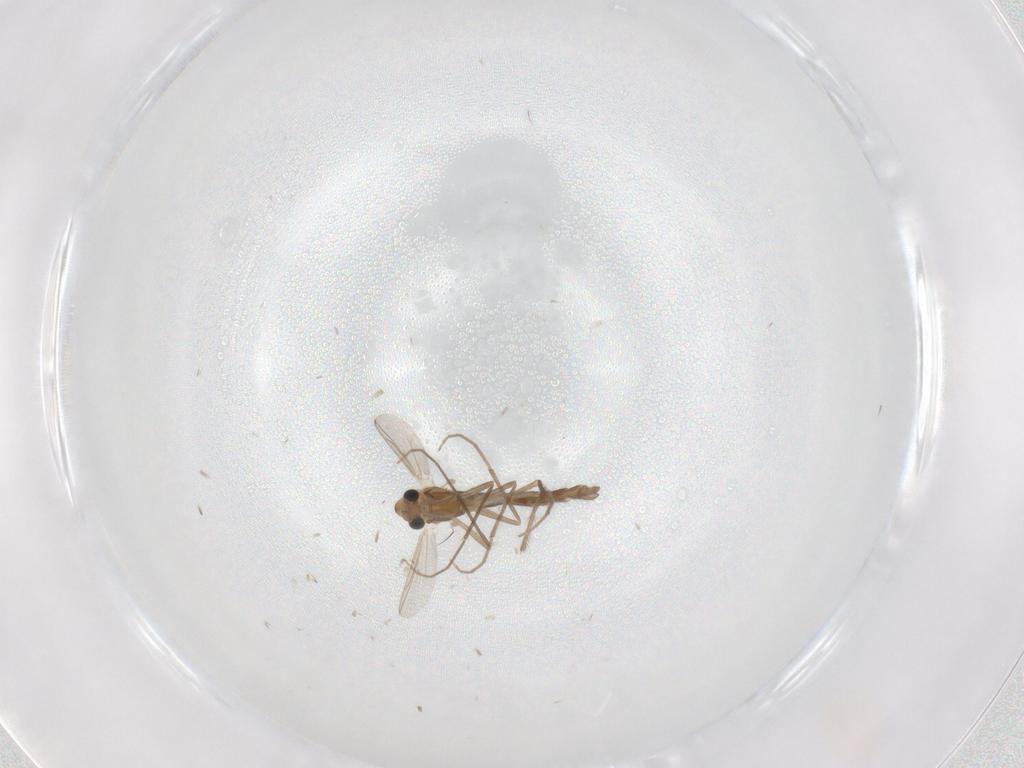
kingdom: Animalia
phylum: Arthropoda
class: Insecta
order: Diptera
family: Chironomidae
